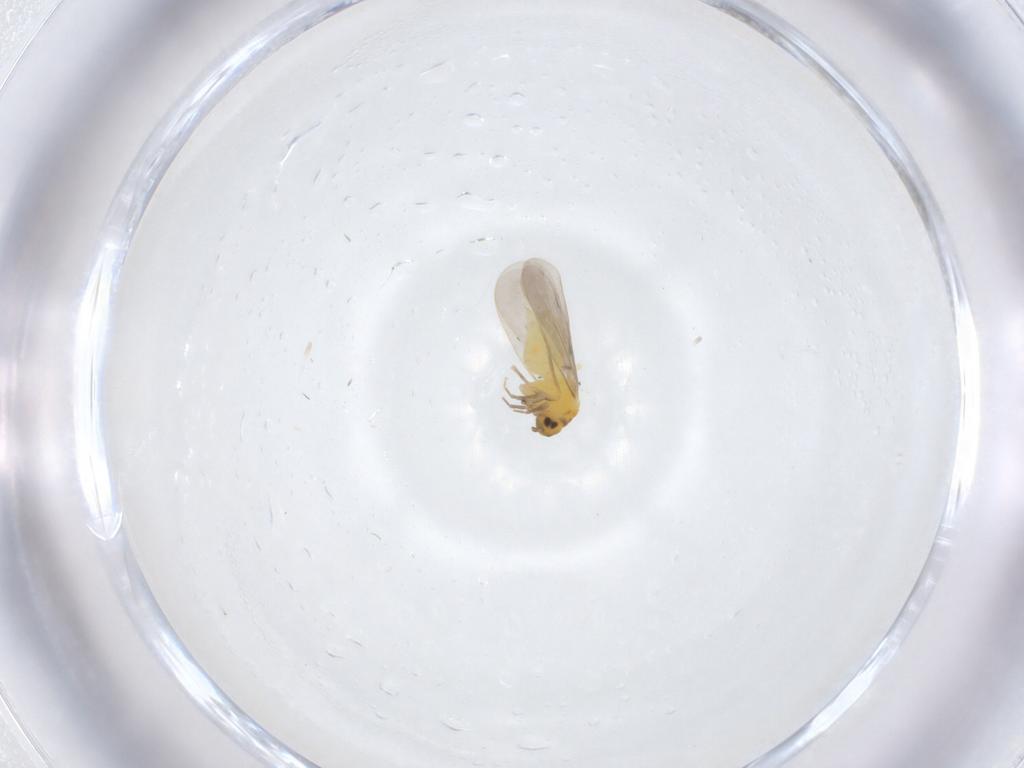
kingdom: Animalia
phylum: Arthropoda
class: Insecta
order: Hemiptera
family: Aleyrodidae
